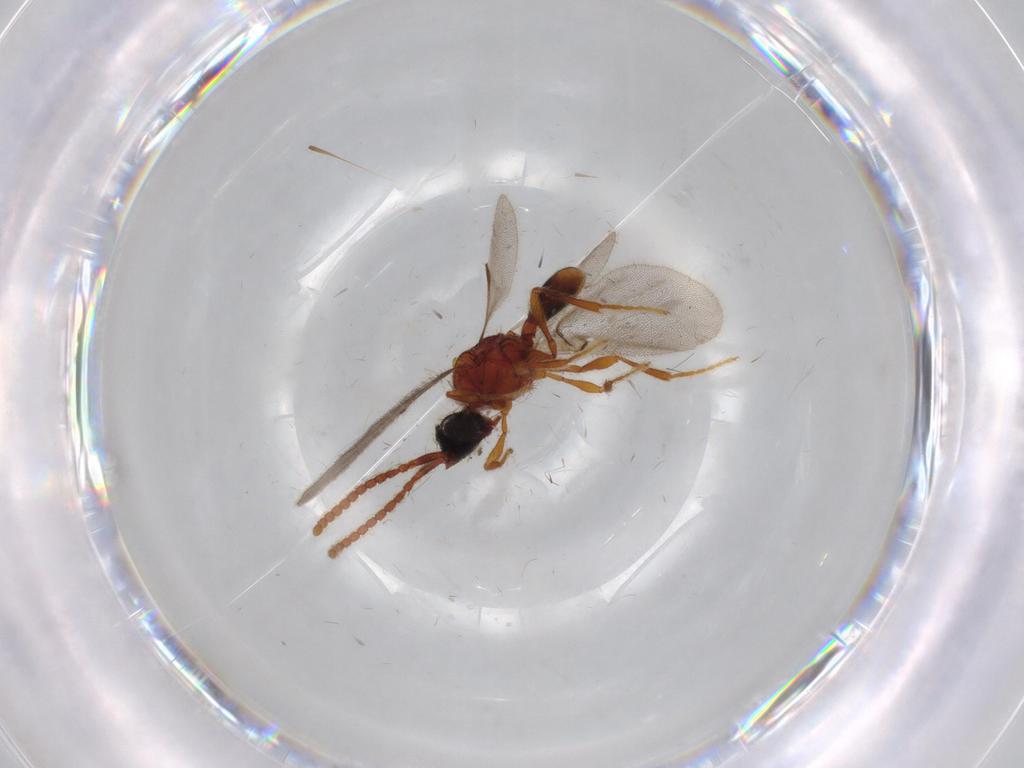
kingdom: Animalia
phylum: Arthropoda
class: Insecta
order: Hymenoptera
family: Diapriidae
